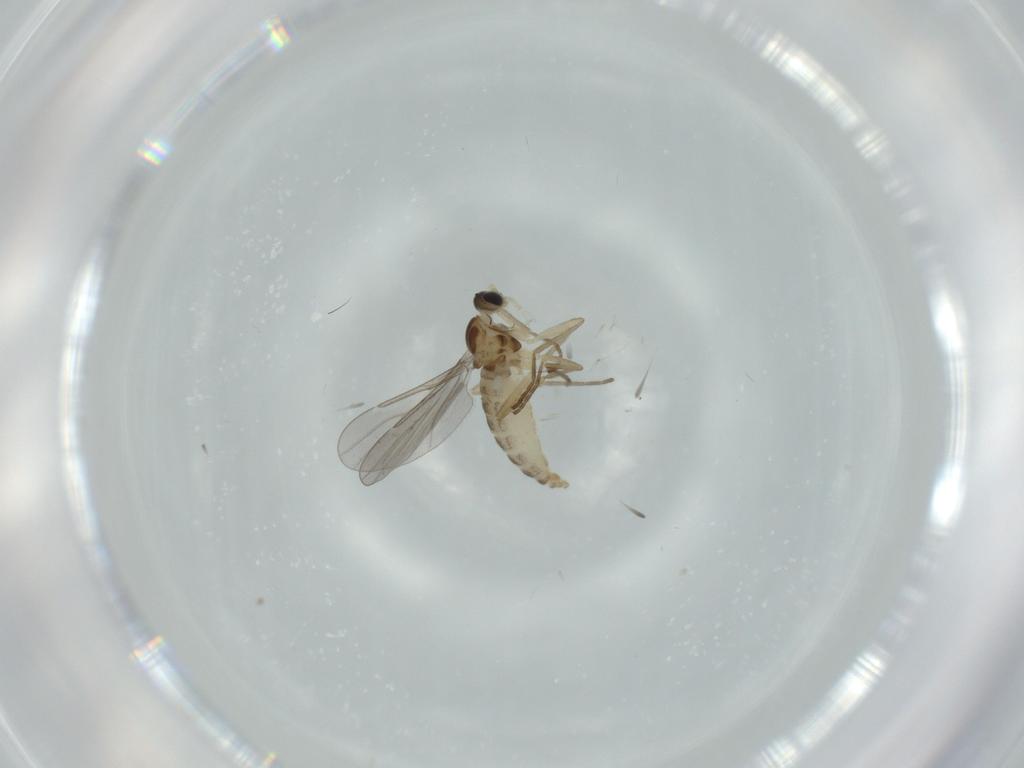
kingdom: Animalia
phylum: Arthropoda
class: Insecta
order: Diptera
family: Cecidomyiidae
